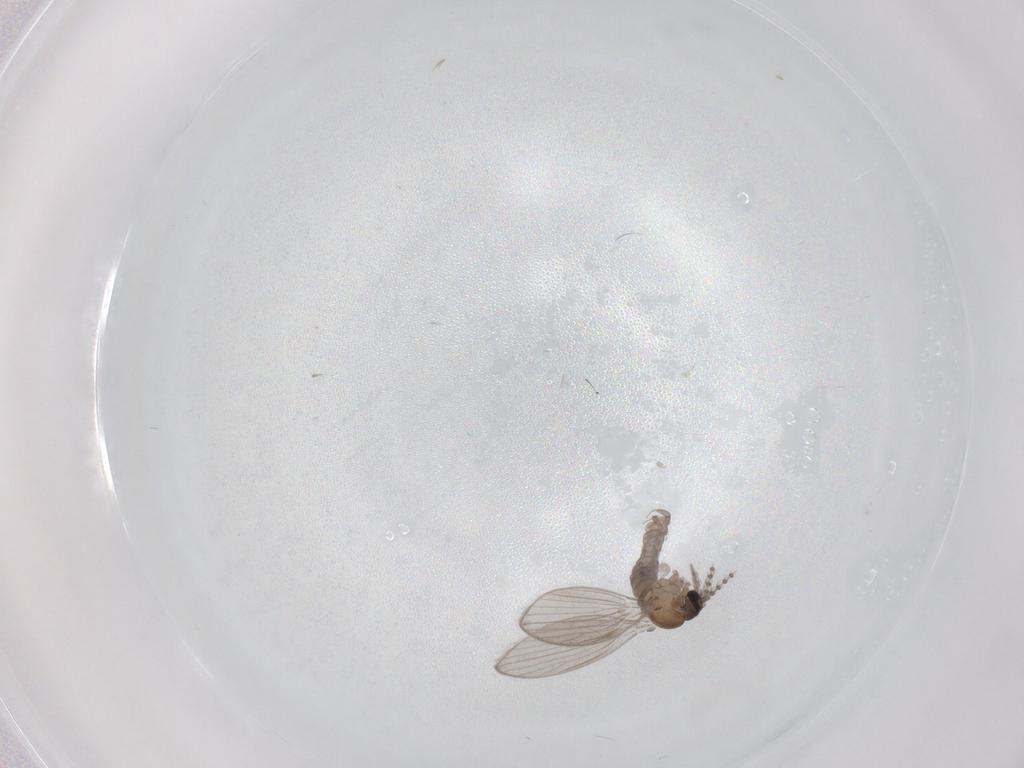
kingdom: Animalia
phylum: Arthropoda
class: Insecta
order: Diptera
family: Psychodidae
